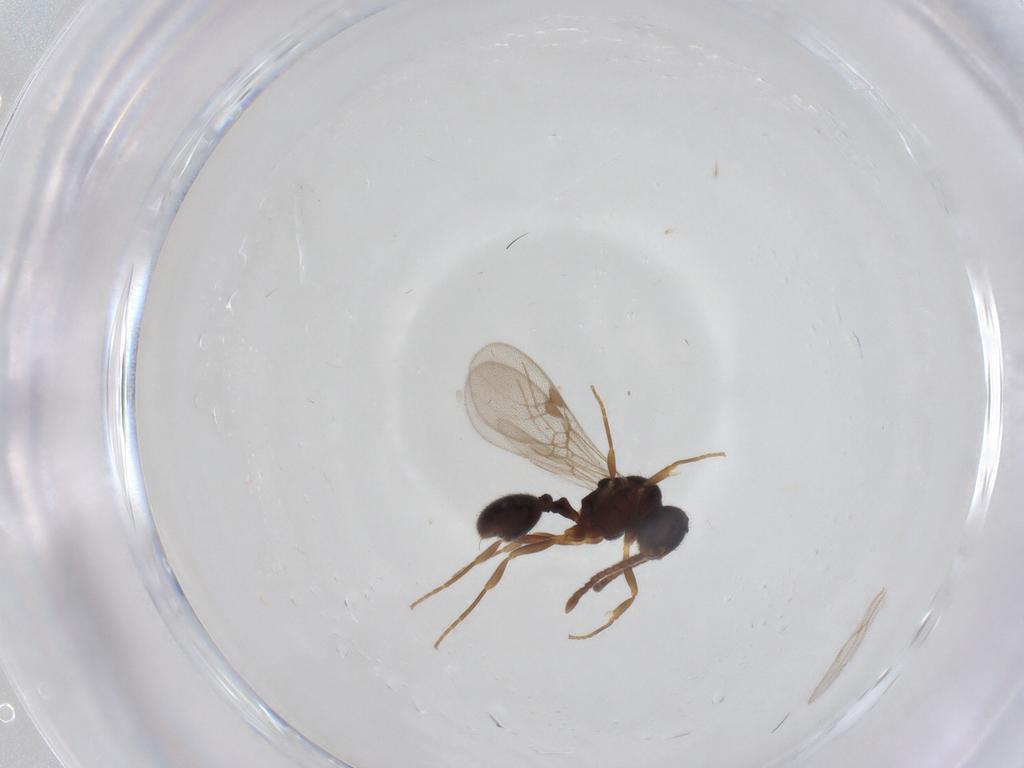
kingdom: Animalia
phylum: Arthropoda
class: Insecta
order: Hymenoptera
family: Formicidae
